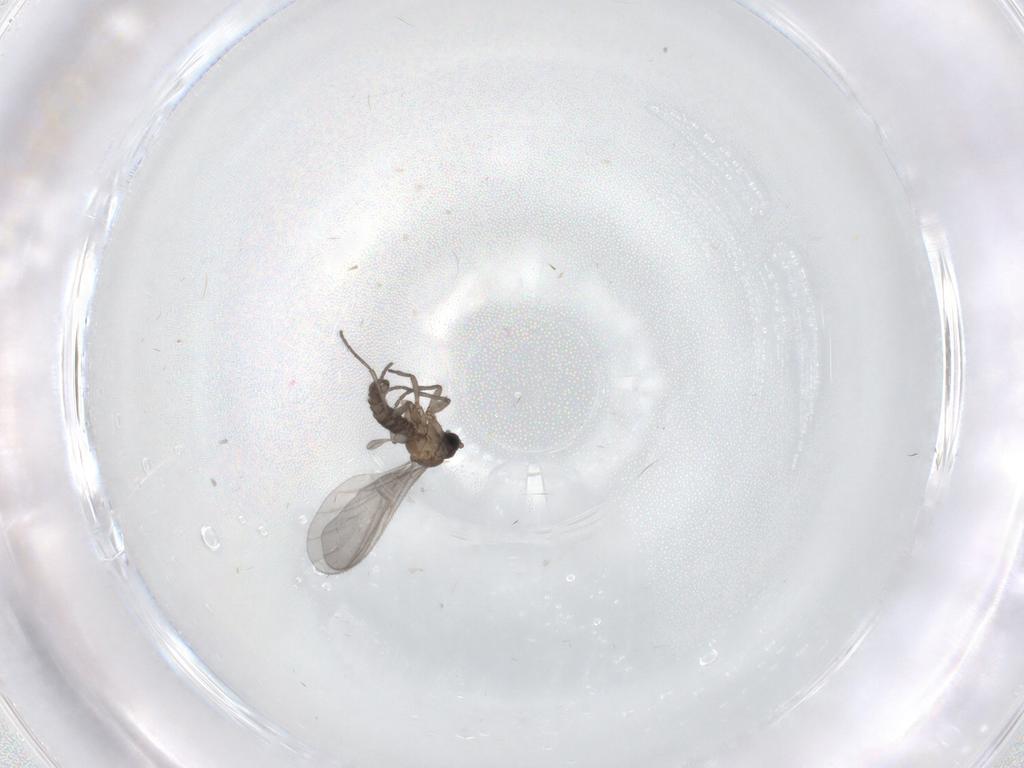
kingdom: Animalia
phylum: Arthropoda
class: Insecta
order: Diptera
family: Sciaridae
